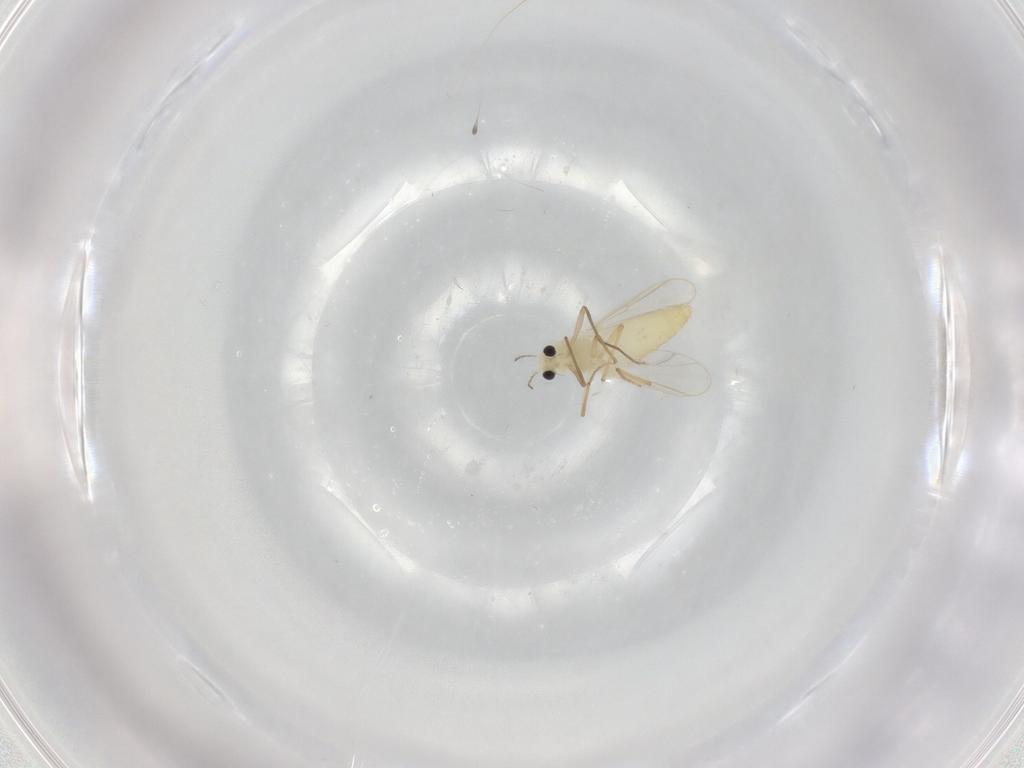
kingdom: Animalia
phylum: Arthropoda
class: Insecta
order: Diptera
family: Chironomidae
